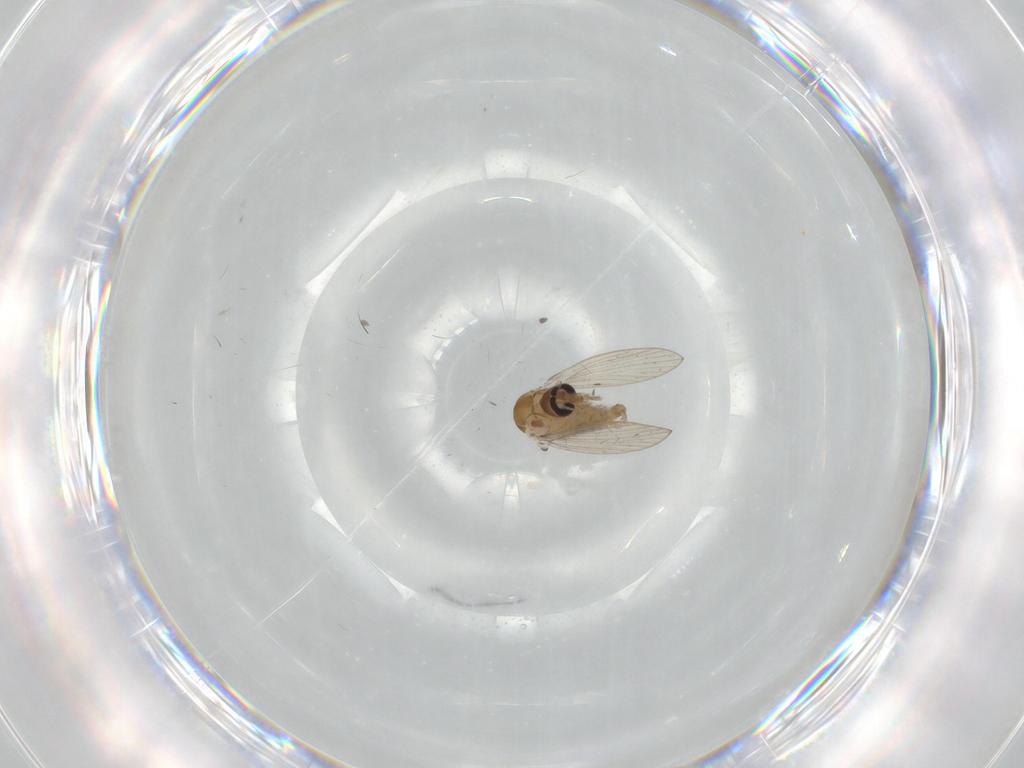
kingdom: Animalia
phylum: Arthropoda
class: Insecta
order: Diptera
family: Psychodidae
